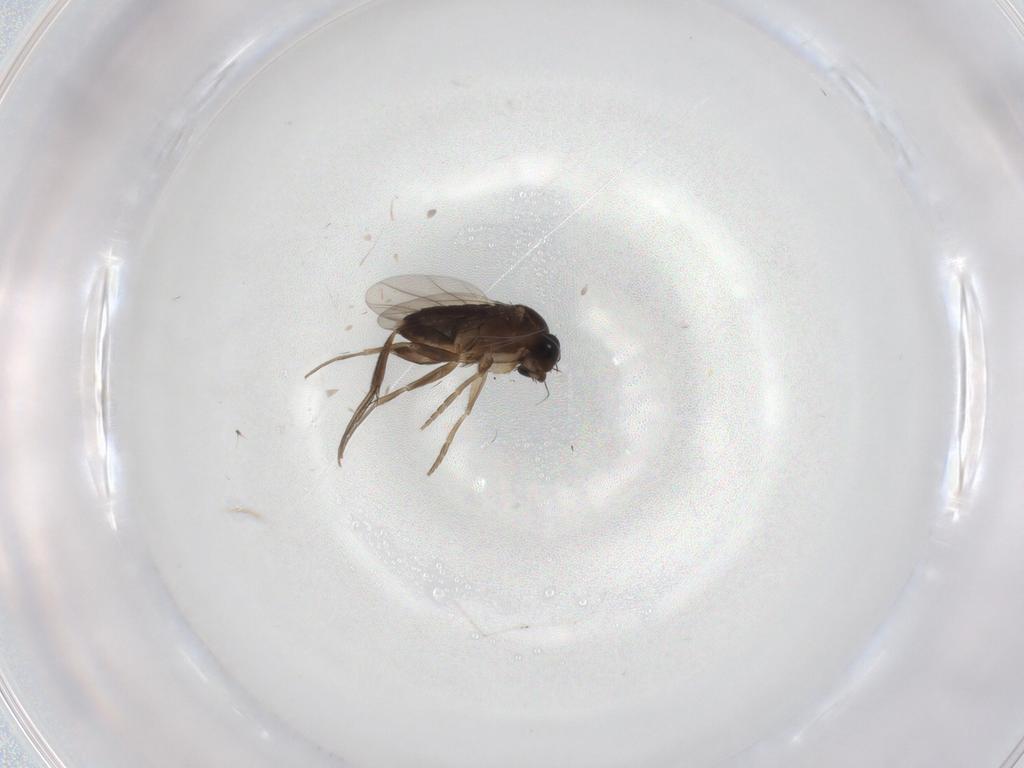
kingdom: Animalia
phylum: Arthropoda
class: Insecta
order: Diptera
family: Phoridae
